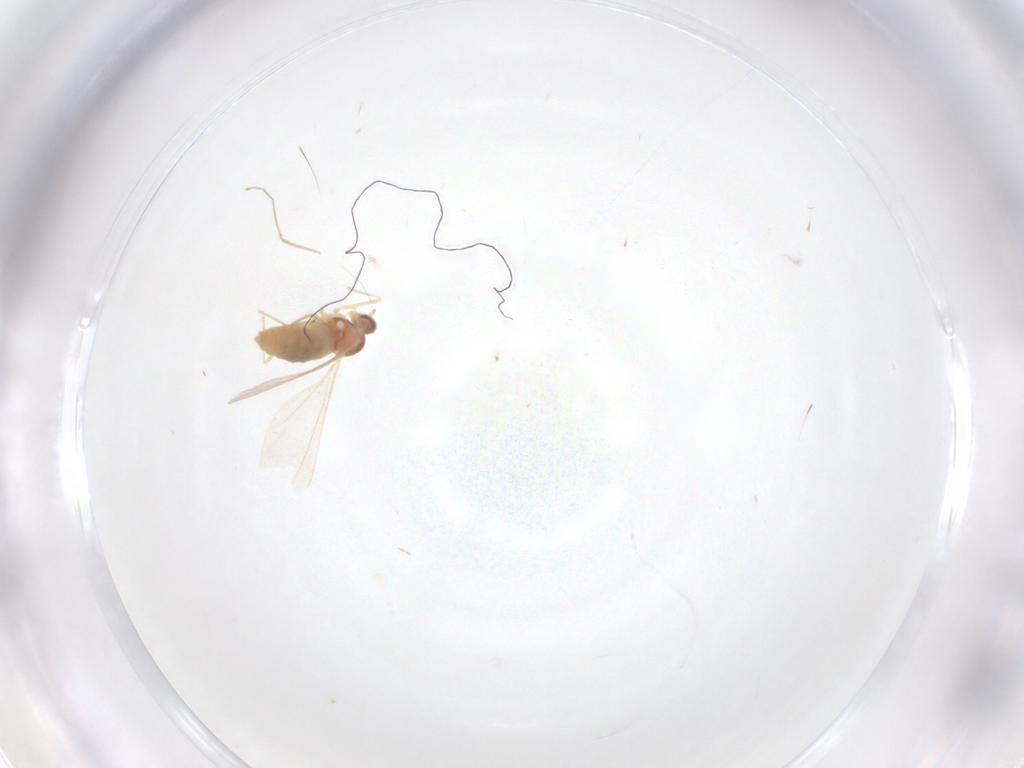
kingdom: Animalia
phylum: Arthropoda
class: Insecta
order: Diptera
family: Cecidomyiidae
